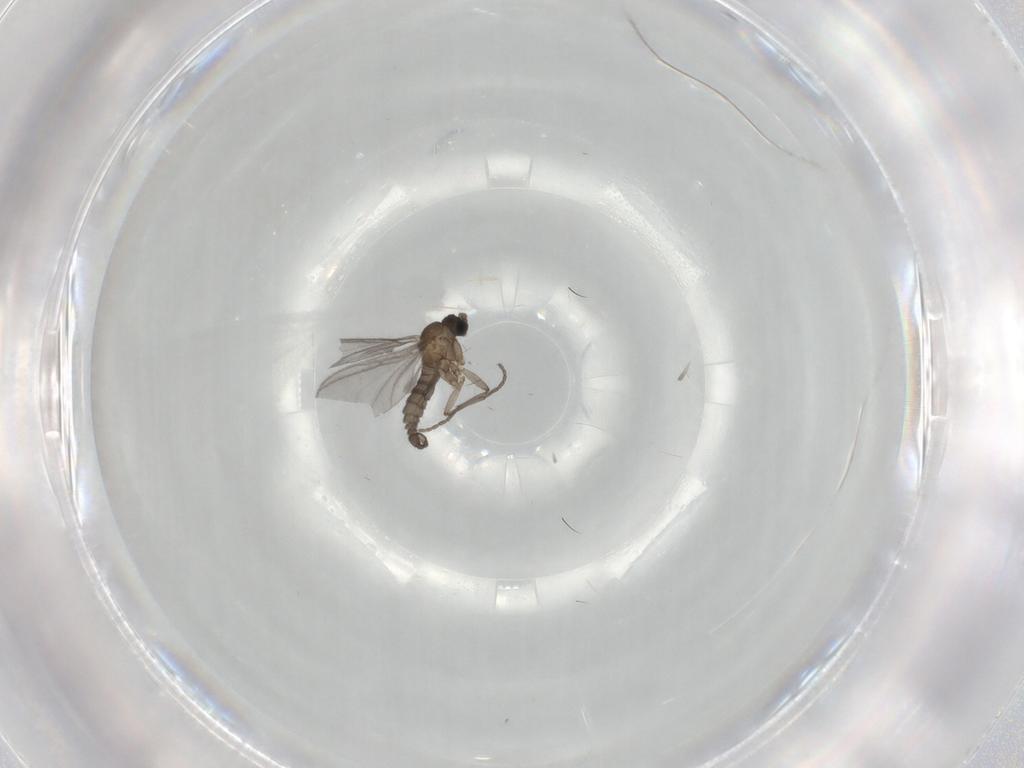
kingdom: Animalia
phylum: Arthropoda
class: Insecta
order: Diptera
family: Sciaridae
